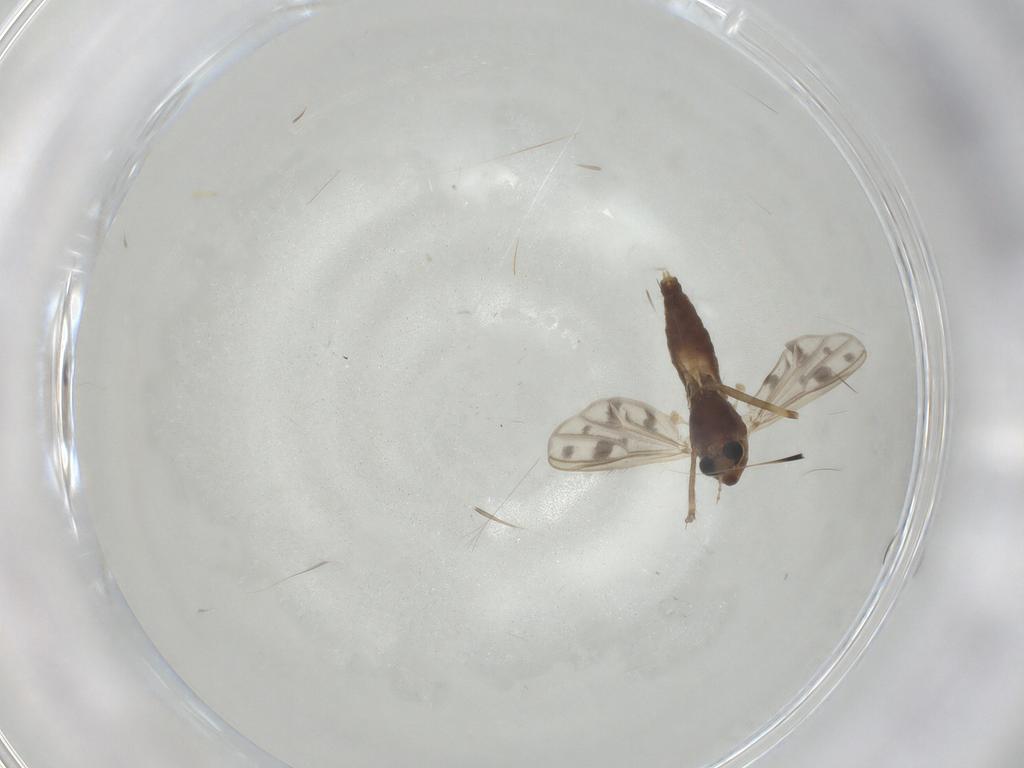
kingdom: Animalia
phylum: Arthropoda
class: Insecta
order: Diptera
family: Chironomidae
